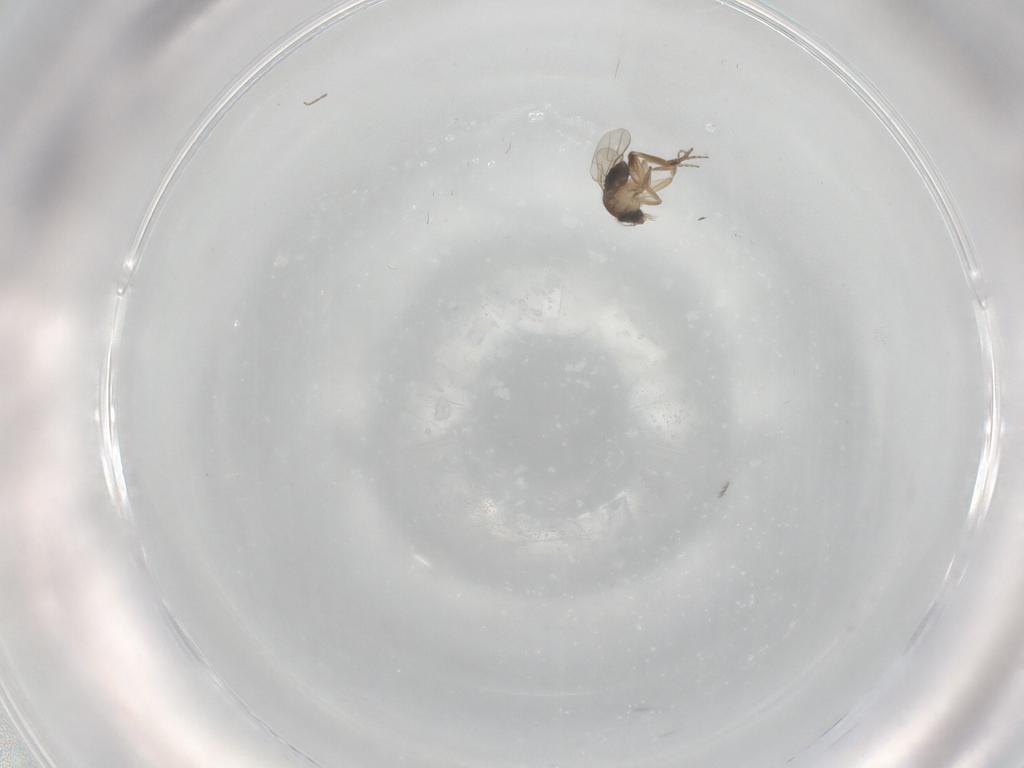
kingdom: Animalia
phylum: Arthropoda
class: Insecta
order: Diptera
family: Phoridae
